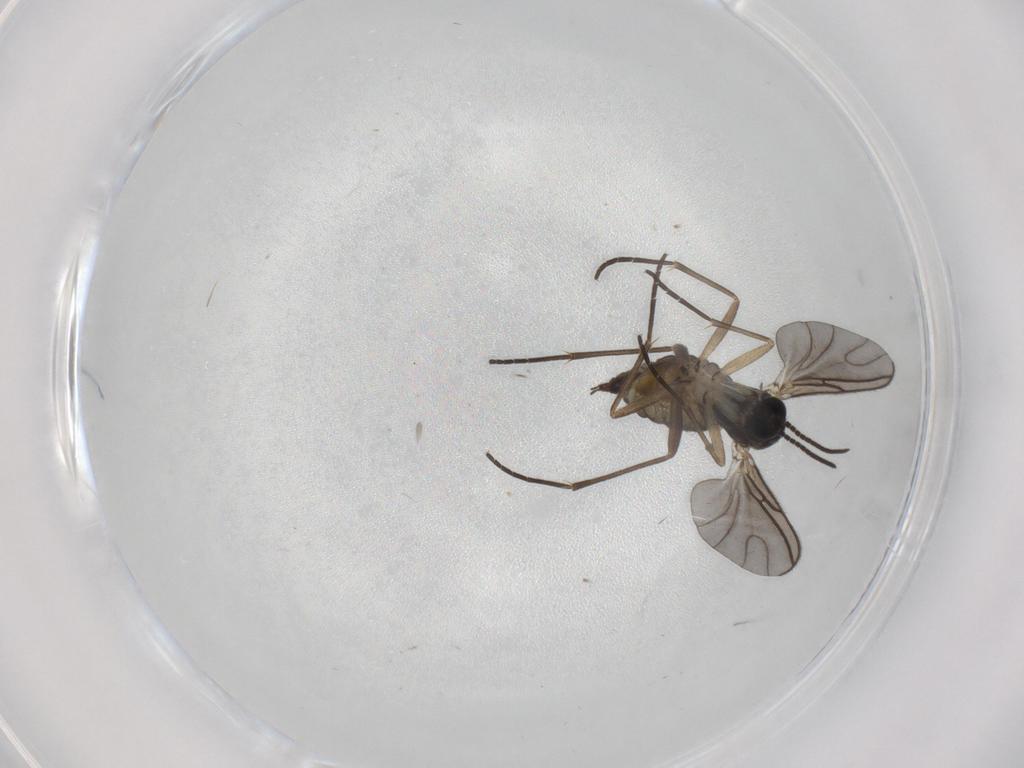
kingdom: Animalia
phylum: Arthropoda
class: Insecta
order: Diptera
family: Sciaridae
